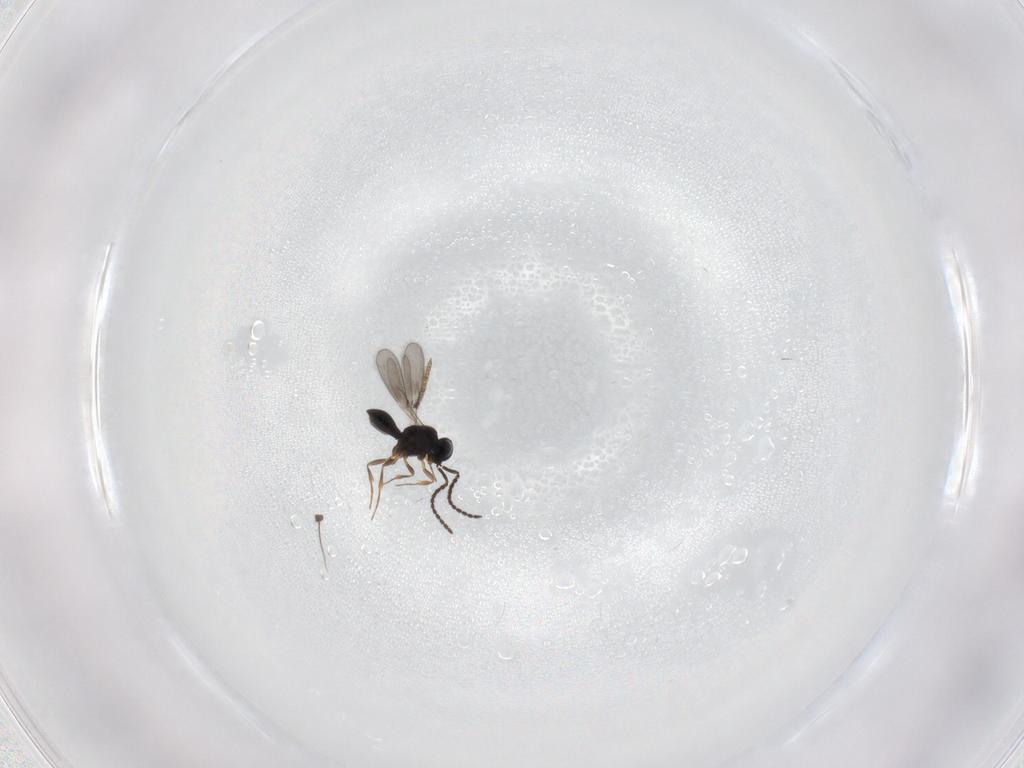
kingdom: Animalia
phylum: Arthropoda
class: Insecta
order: Hymenoptera
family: Scelionidae
